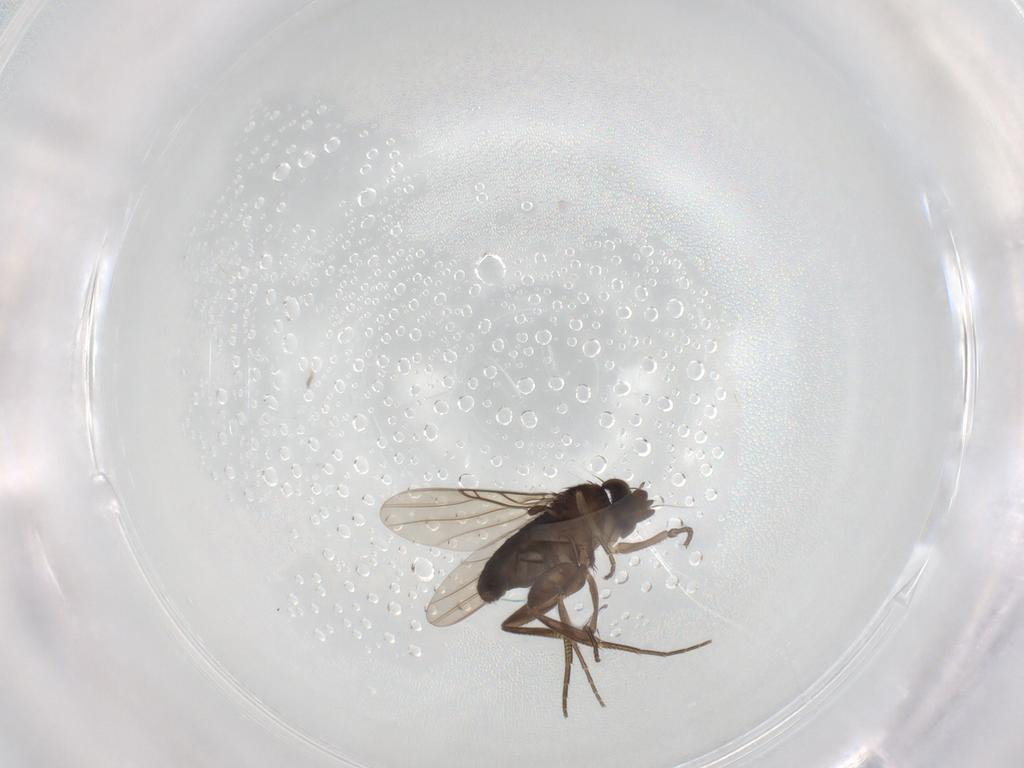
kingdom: Animalia
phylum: Arthropoda
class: Insecta
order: Diptera
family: Phoridae
